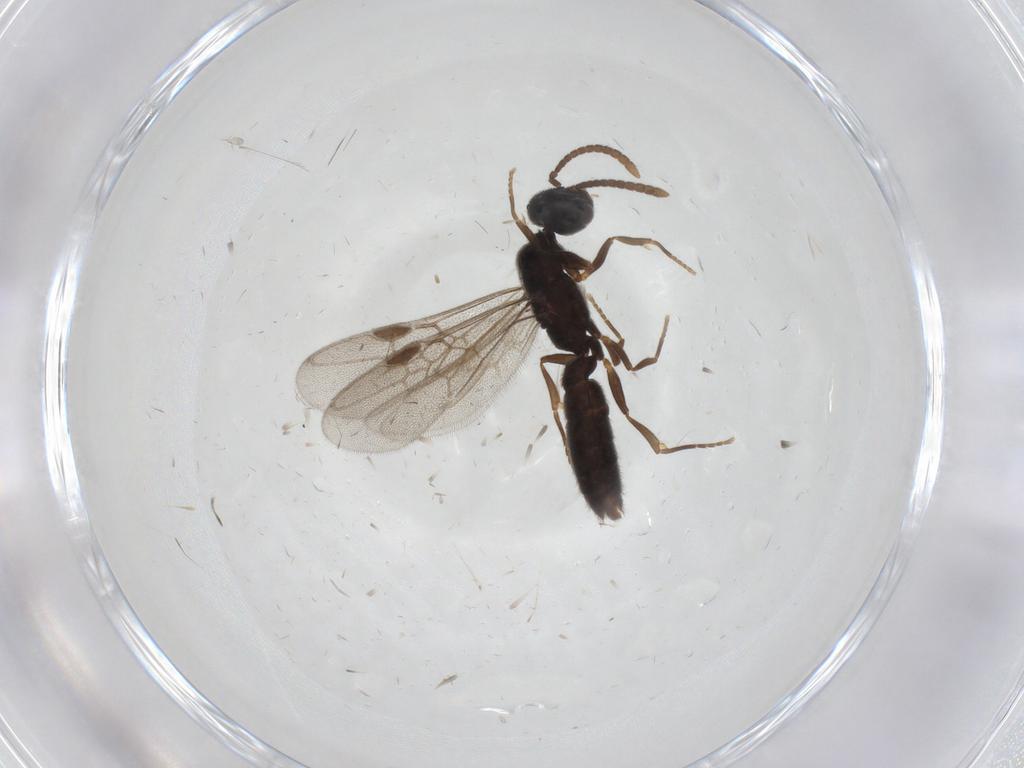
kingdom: Animalia
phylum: Arthropoda
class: Insecta
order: Hymenoptera
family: Formicidae
